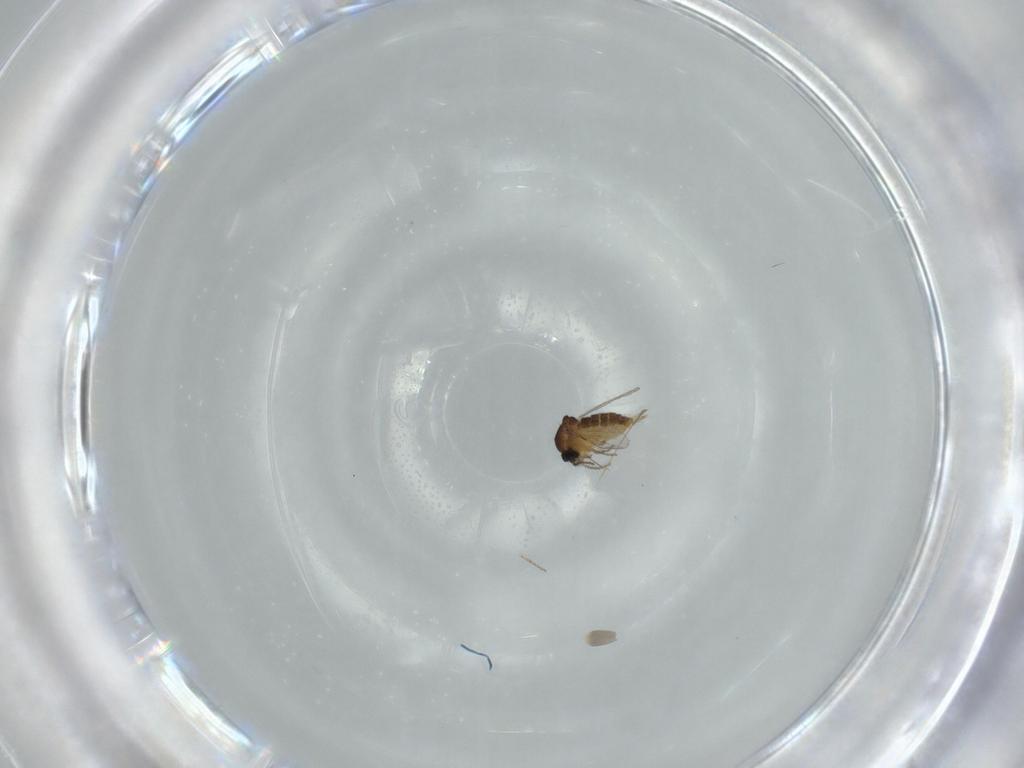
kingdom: Animalia
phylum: Arthropoda
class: Insecta
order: Diptera
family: Ceratopogonidae
